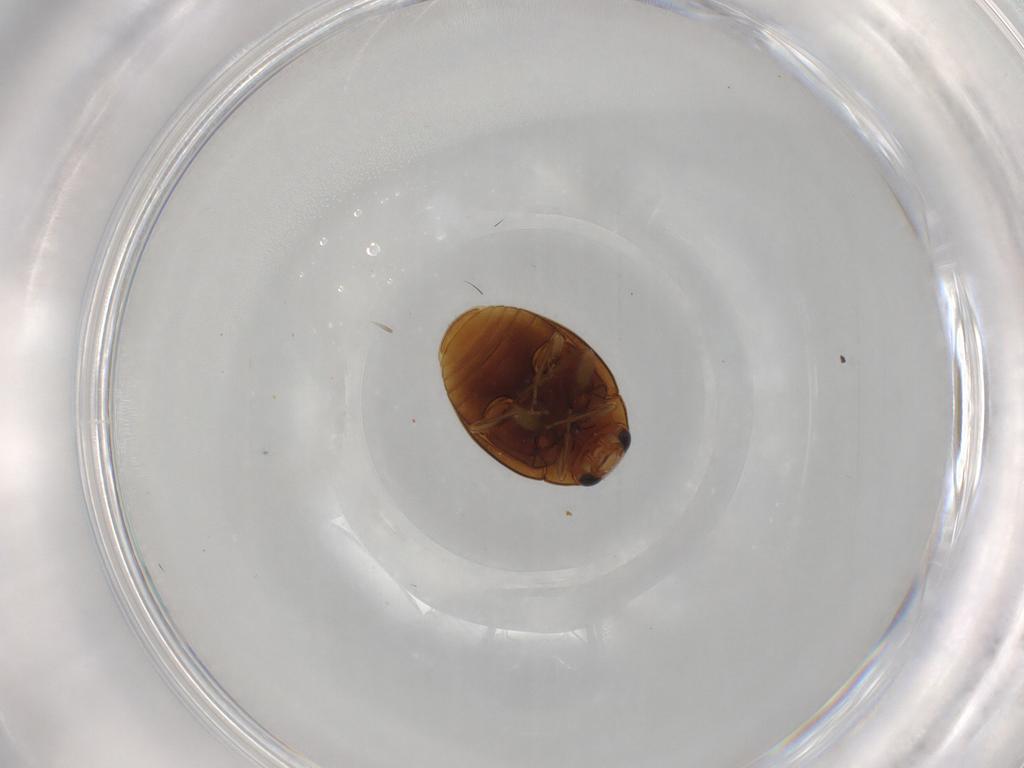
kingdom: Animalia
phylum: Arthropoda
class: Insecta
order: Coleoptera
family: Coccinellidae
